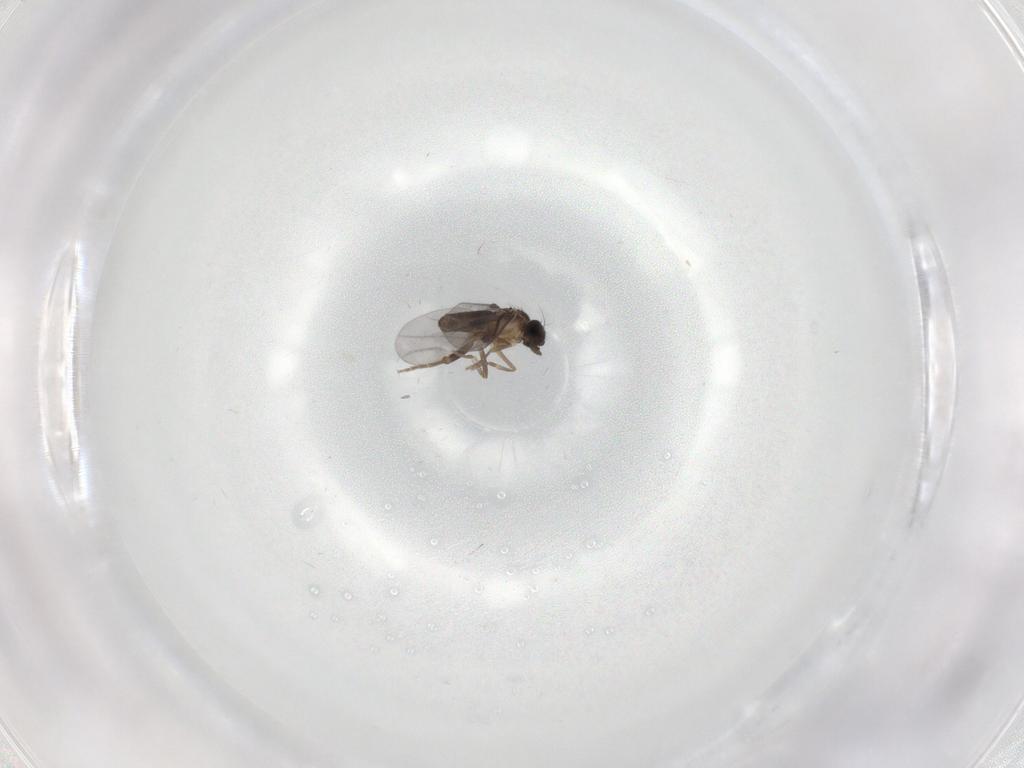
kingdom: Animalia
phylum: Arthropoda
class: Insecta
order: Diptera
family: Phoridae
